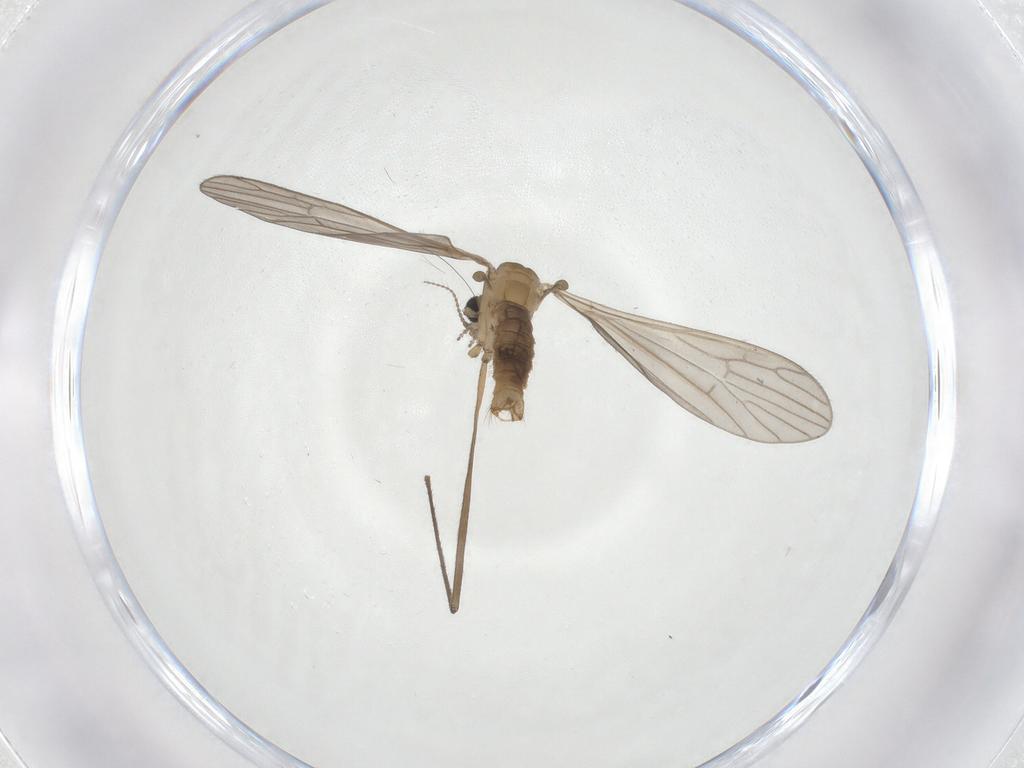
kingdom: Animalia
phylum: Arthropoda
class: Insecta
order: Diptera
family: Limoniidae
